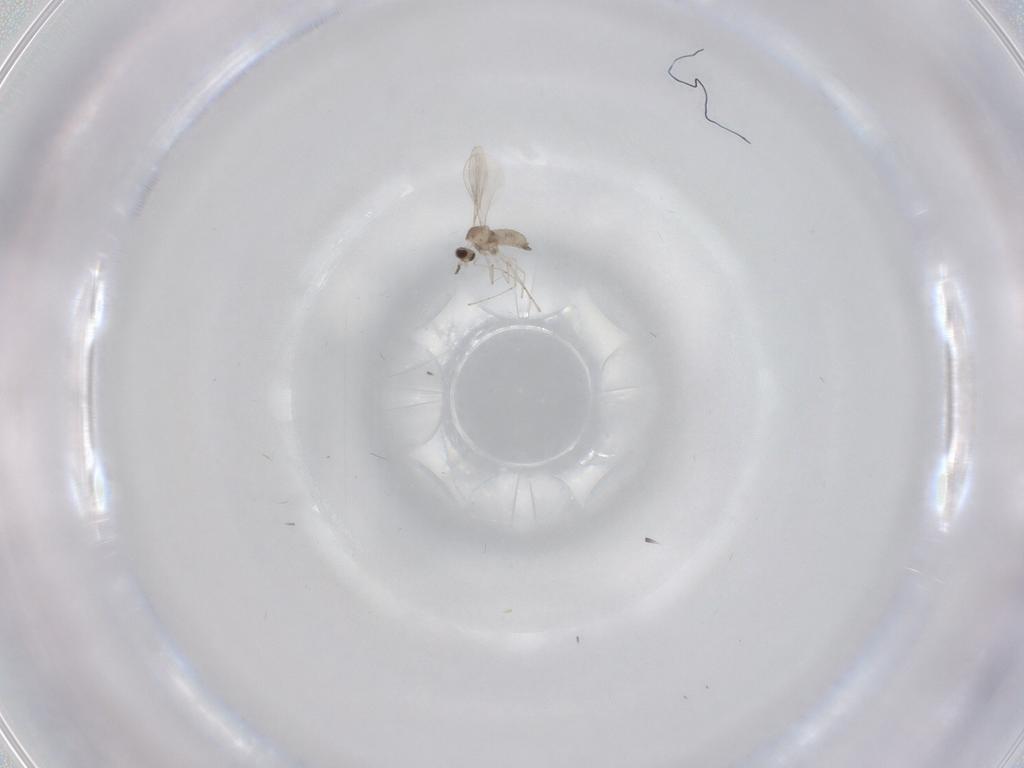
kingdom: Animalia
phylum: Arthropoda
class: Insecta
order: Diptera
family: Cecidomyiidae
